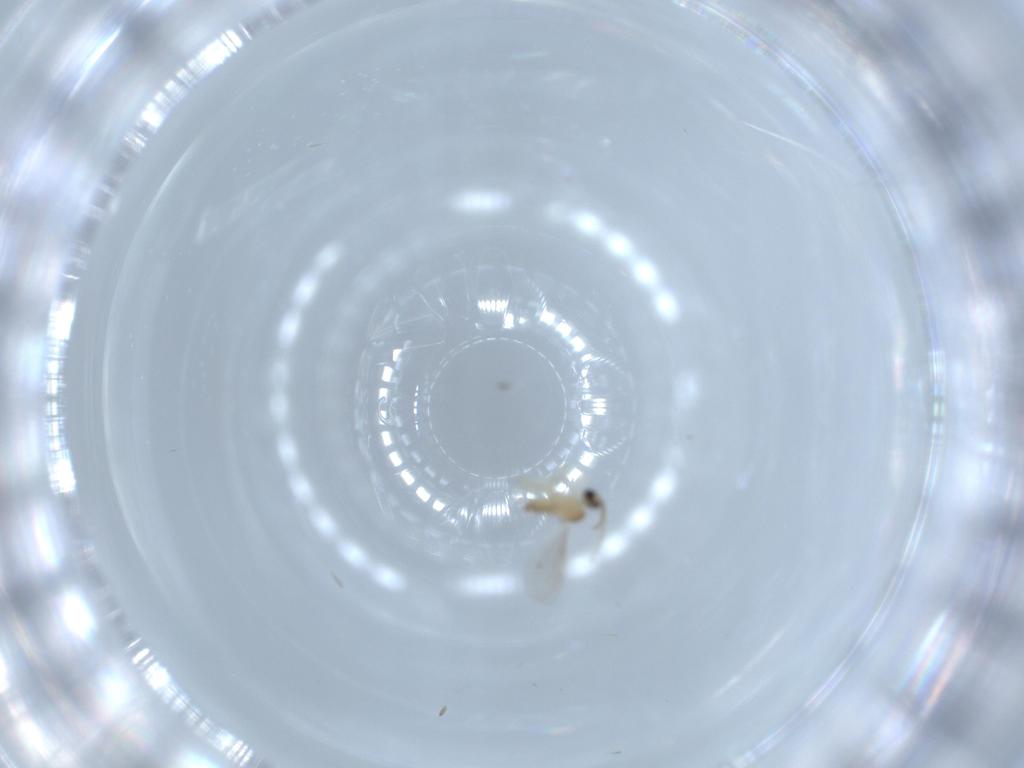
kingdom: Animalia
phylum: Arthropoda
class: Insecta
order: Diptera
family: Cecidomyiidae
